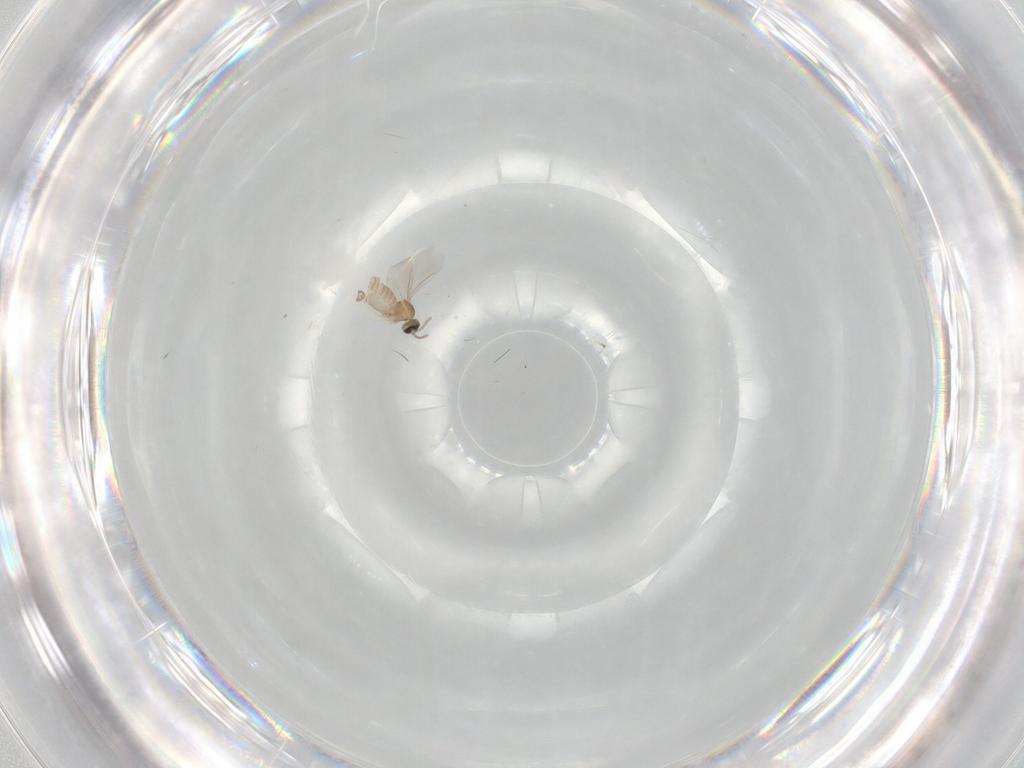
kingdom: Animalia
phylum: Arthropoda
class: Insecta
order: Diptera
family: Cecidomyiidae
